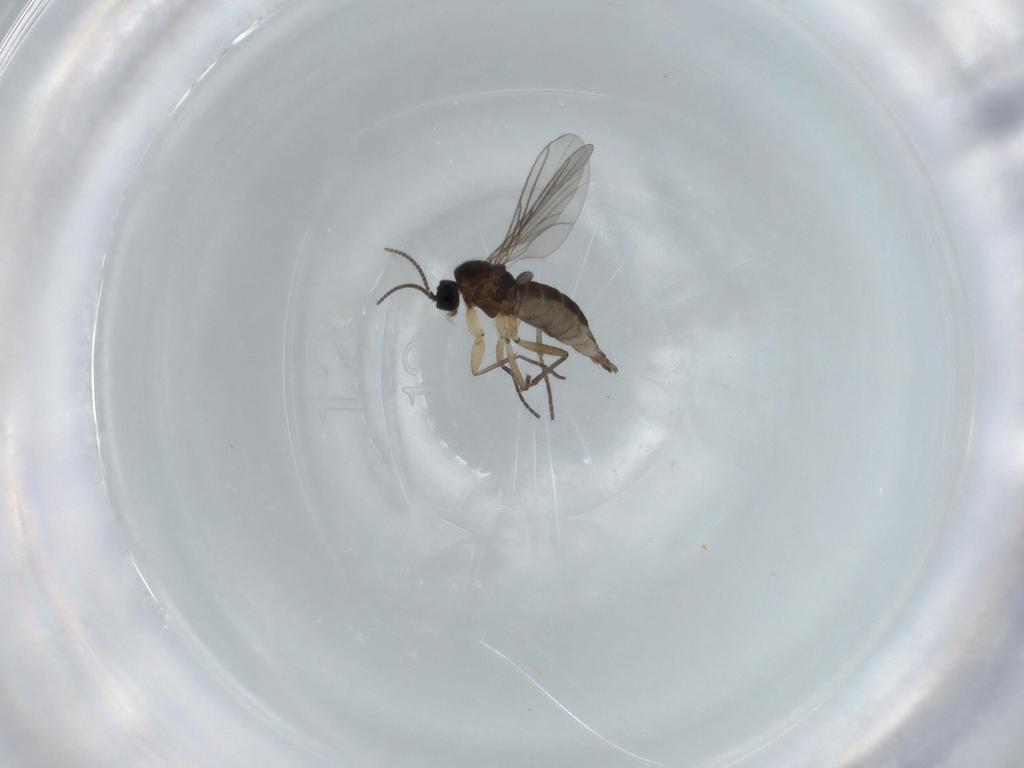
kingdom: Animalia
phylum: Arthropoda
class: Insecta
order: Diptera
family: Sciaridae
